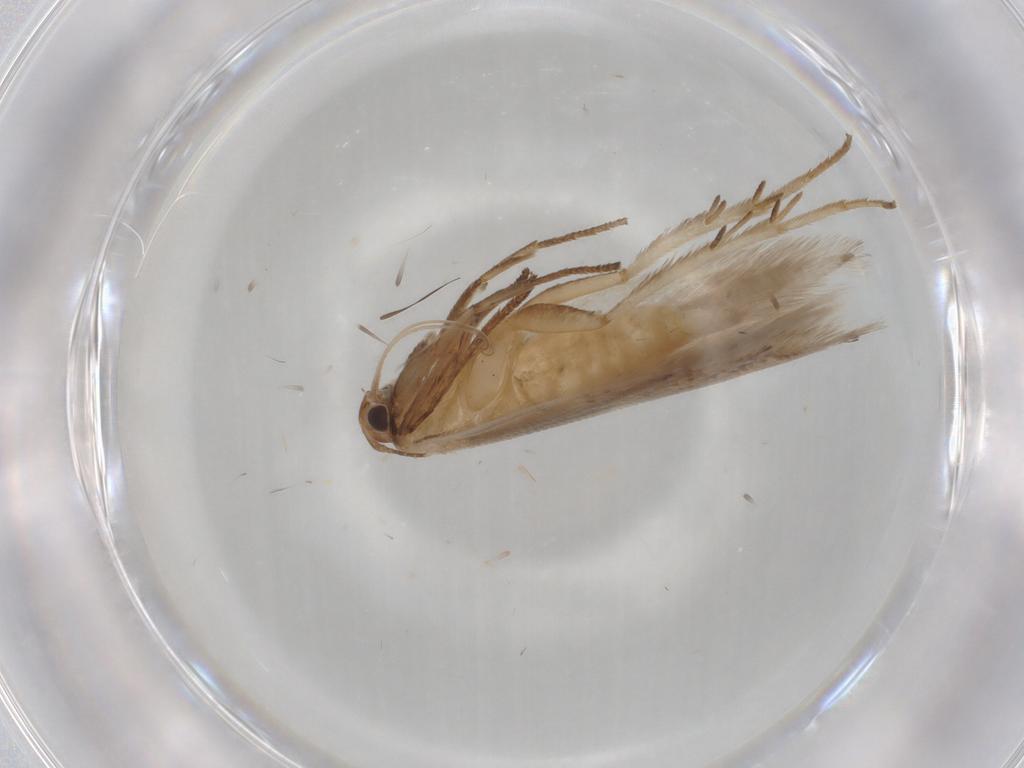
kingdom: Animalia
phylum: Arthropoda
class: Insecta
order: Lepidoptera
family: Gelechiidae
